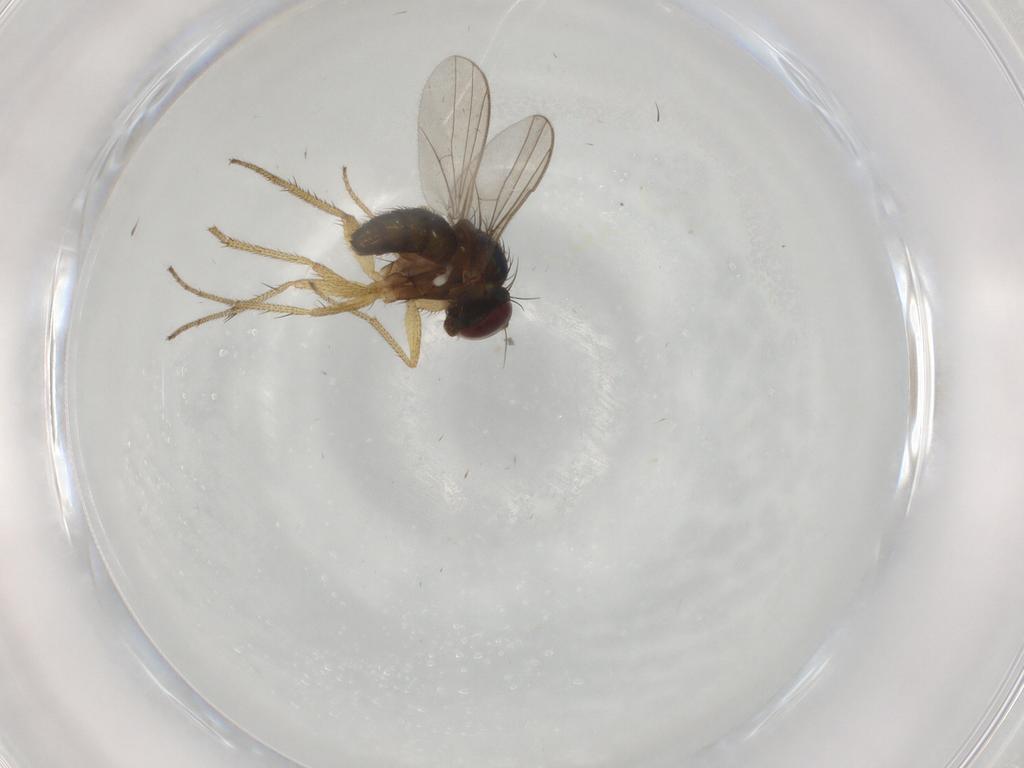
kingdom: Animalia
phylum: Arthropoda
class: Insecta
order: Diptera
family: Dolichopodidae
